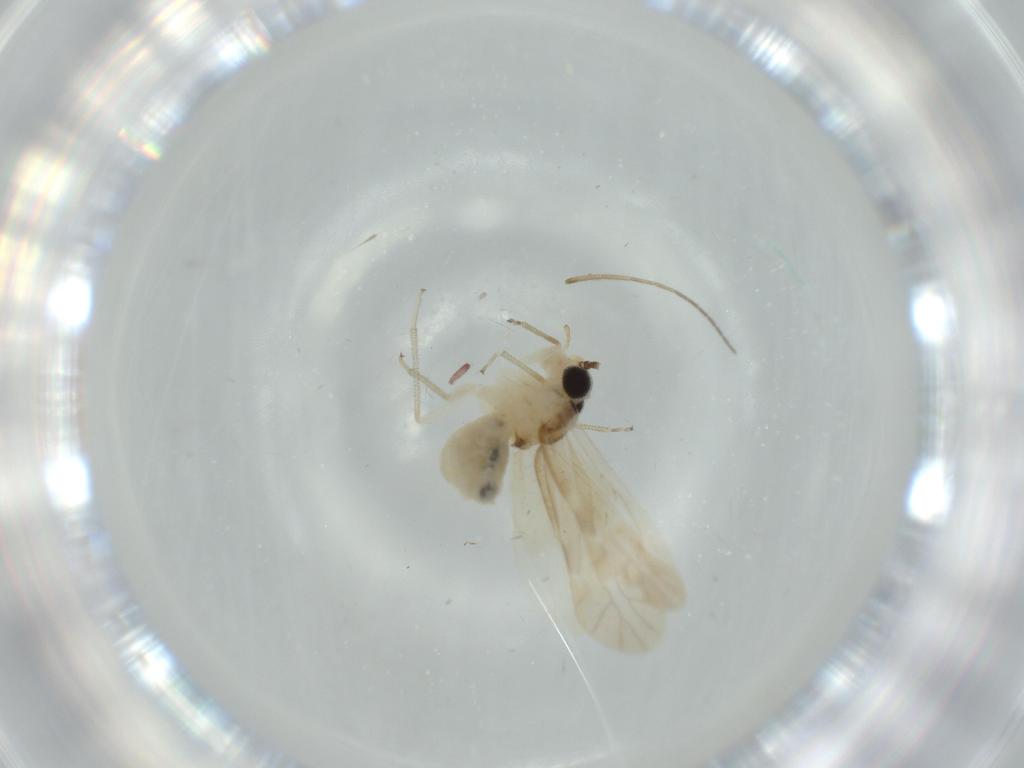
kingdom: Animalia
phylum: Arthropoda
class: Insecta
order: Psocodea
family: Caeciliusidae
